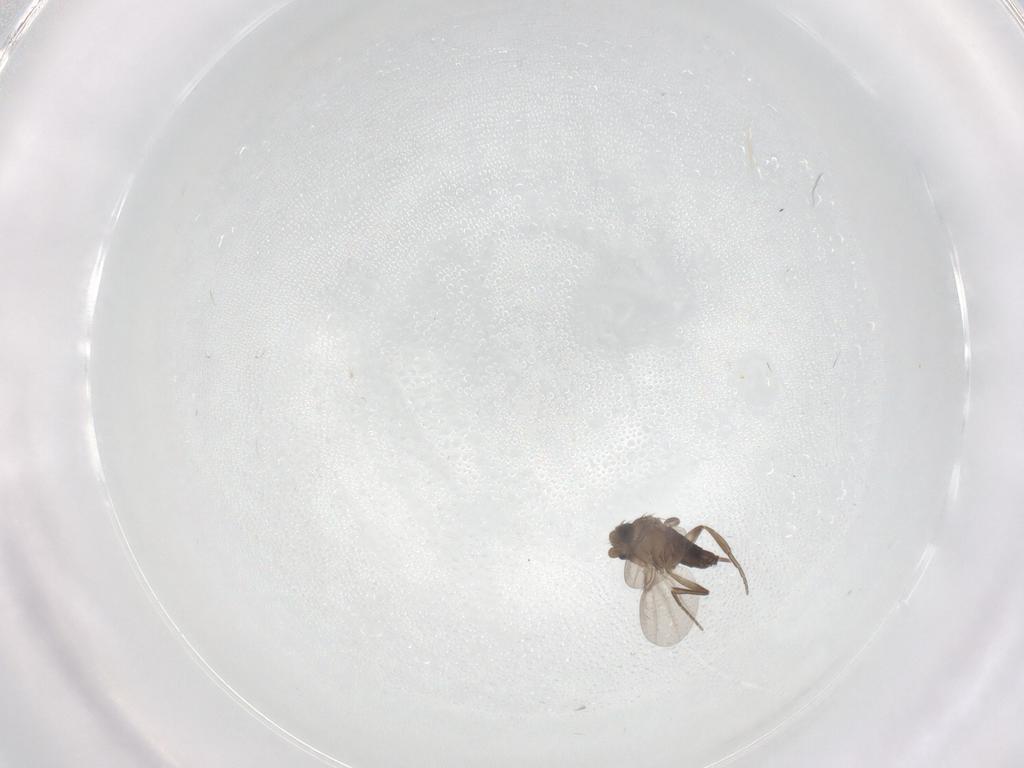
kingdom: Animalia
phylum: Arthropoda
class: Insecta
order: Diptera
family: Phoridae
